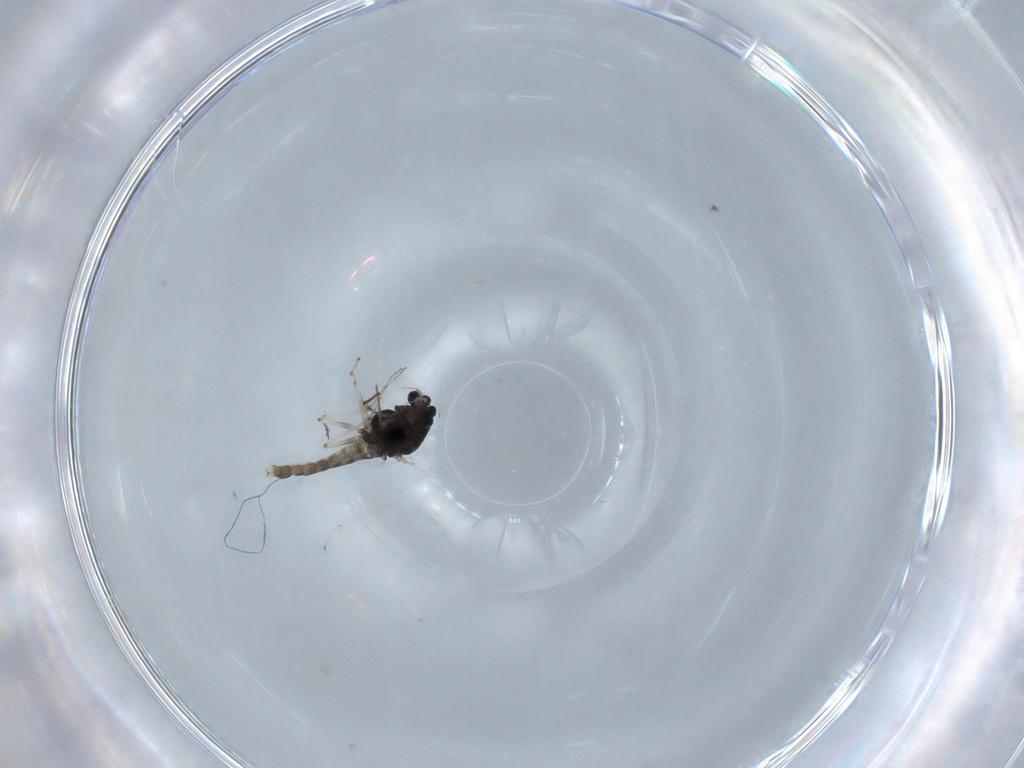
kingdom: Animalia
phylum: Arthropoda
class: Insecta
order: Diptera
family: Chironomidae
